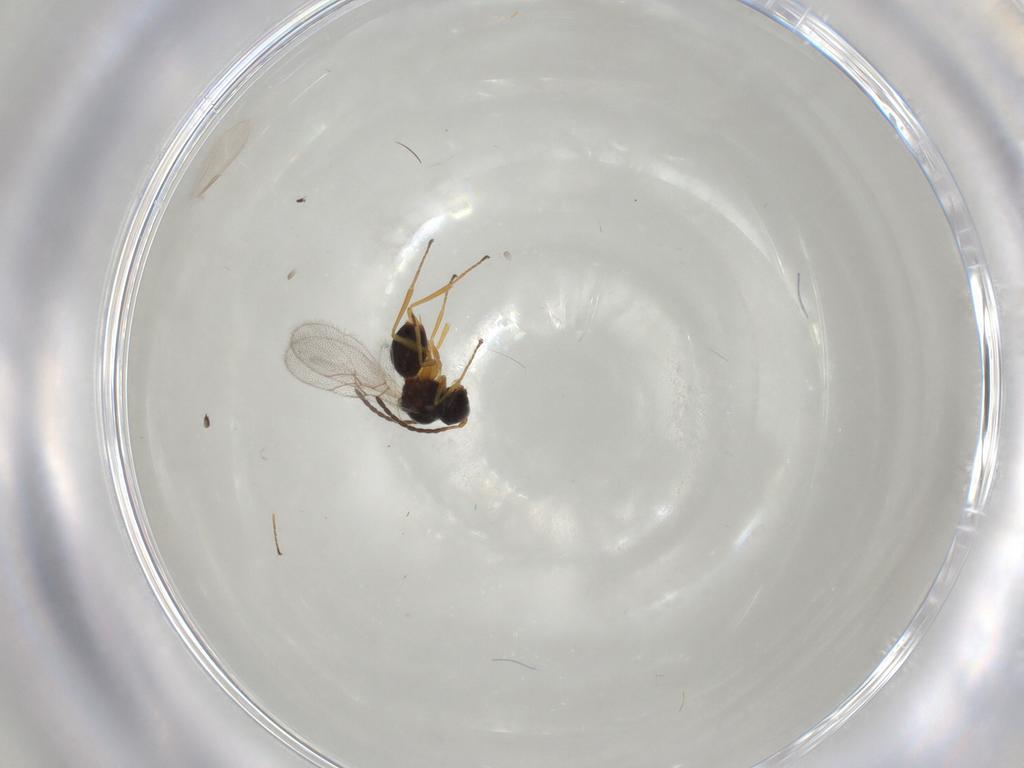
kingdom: Animalia
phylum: Arthropoda
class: Insecta
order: Hymenoptera
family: Figitidae
